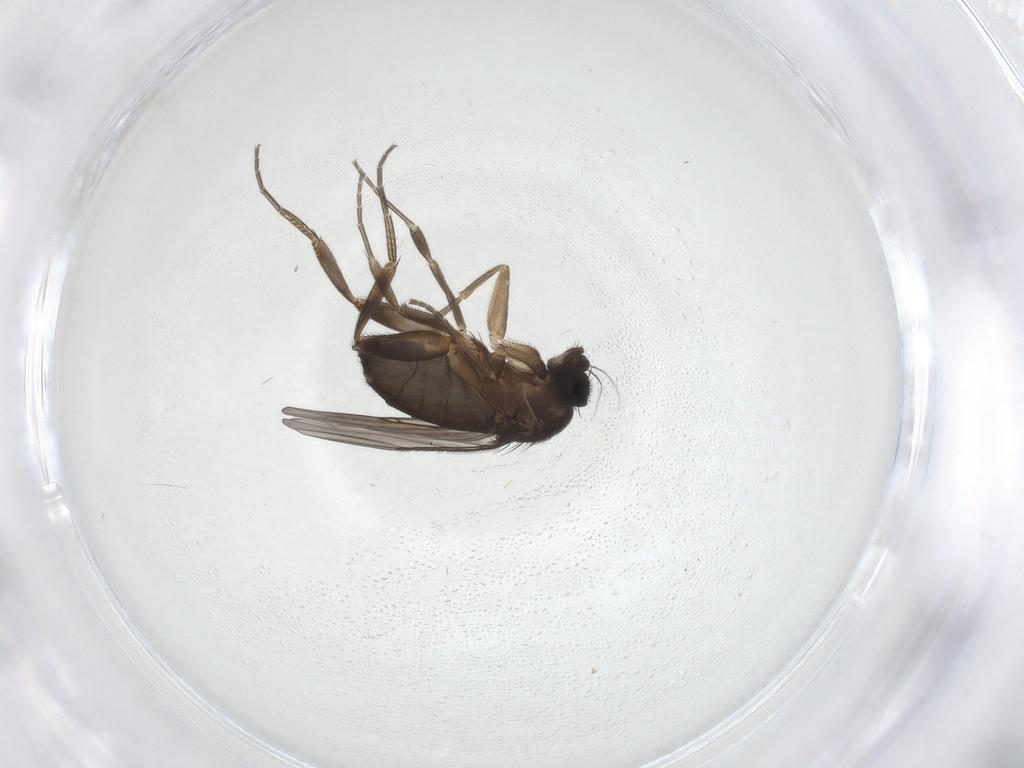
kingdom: Animalia
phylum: Arthropoda
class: Insecta
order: Diptera
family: Phoridae
